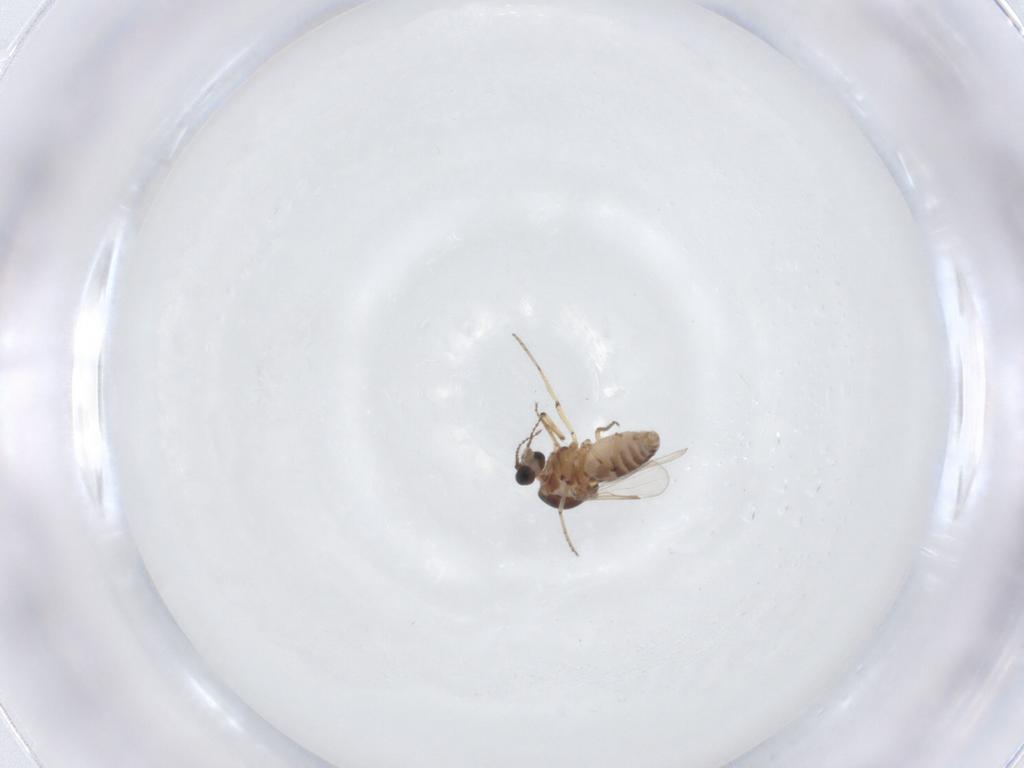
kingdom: Animalia
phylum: Arthropoda
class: Insecta
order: Diptera
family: Ceratopogonidae
